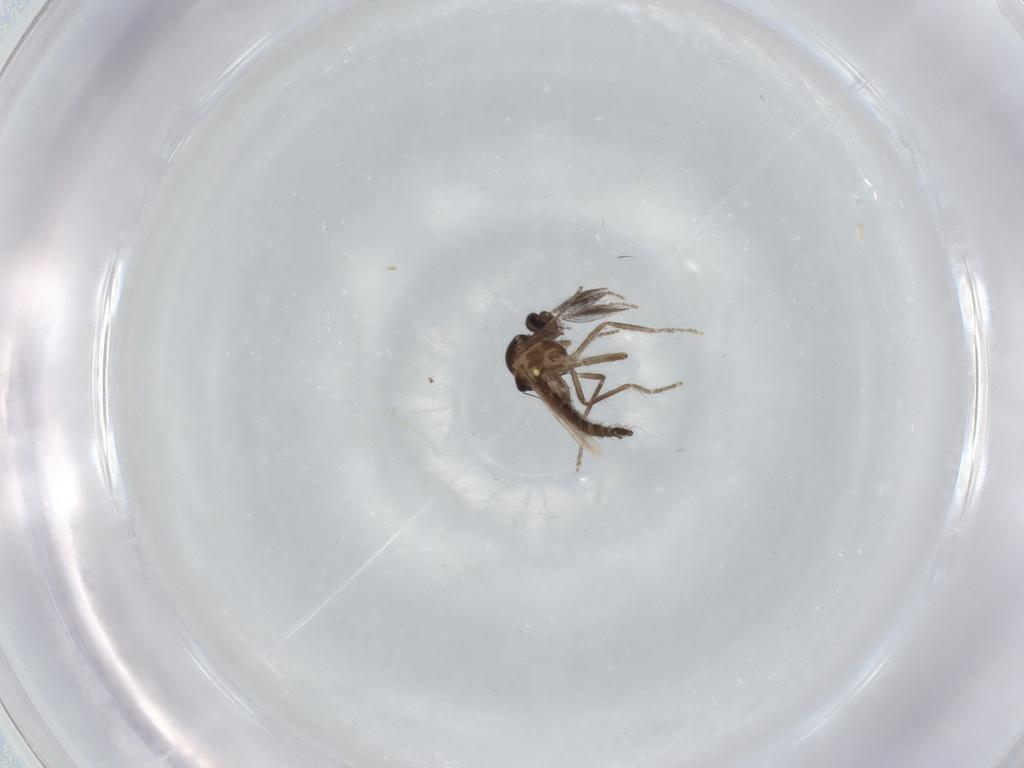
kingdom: Animalia
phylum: Arthropoda
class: Insecta
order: Diptera
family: Ceratopogonidae
